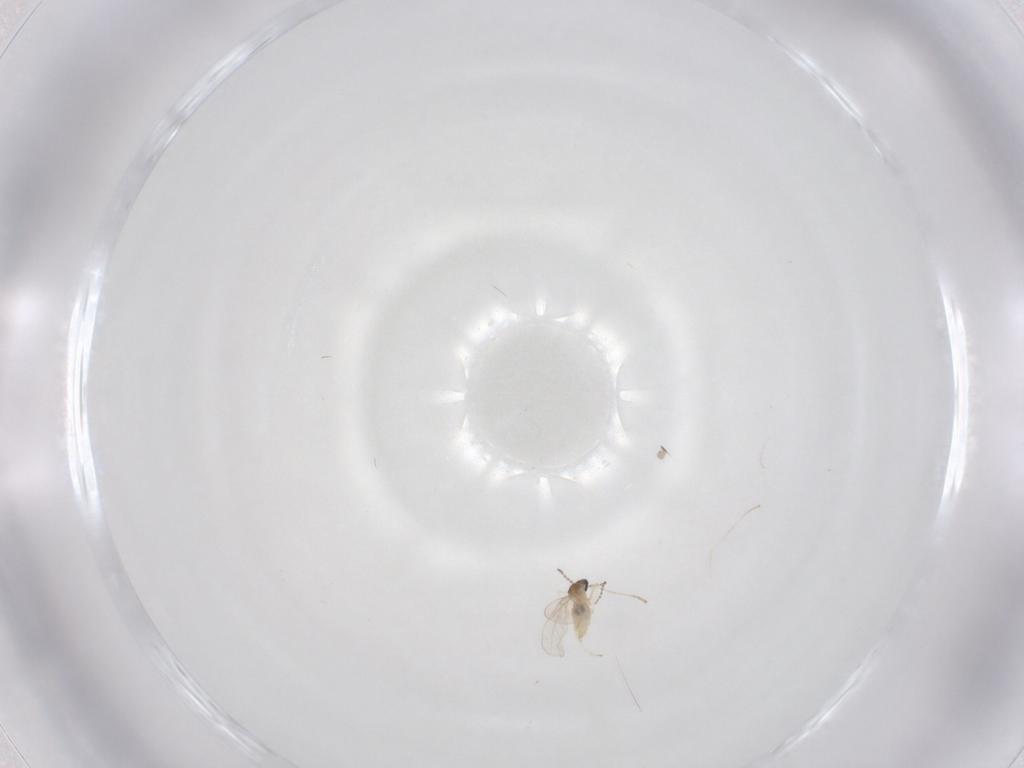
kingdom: Animalia
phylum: Arthropoda
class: Insecta
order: Diptera
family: Cecidomyiidae
